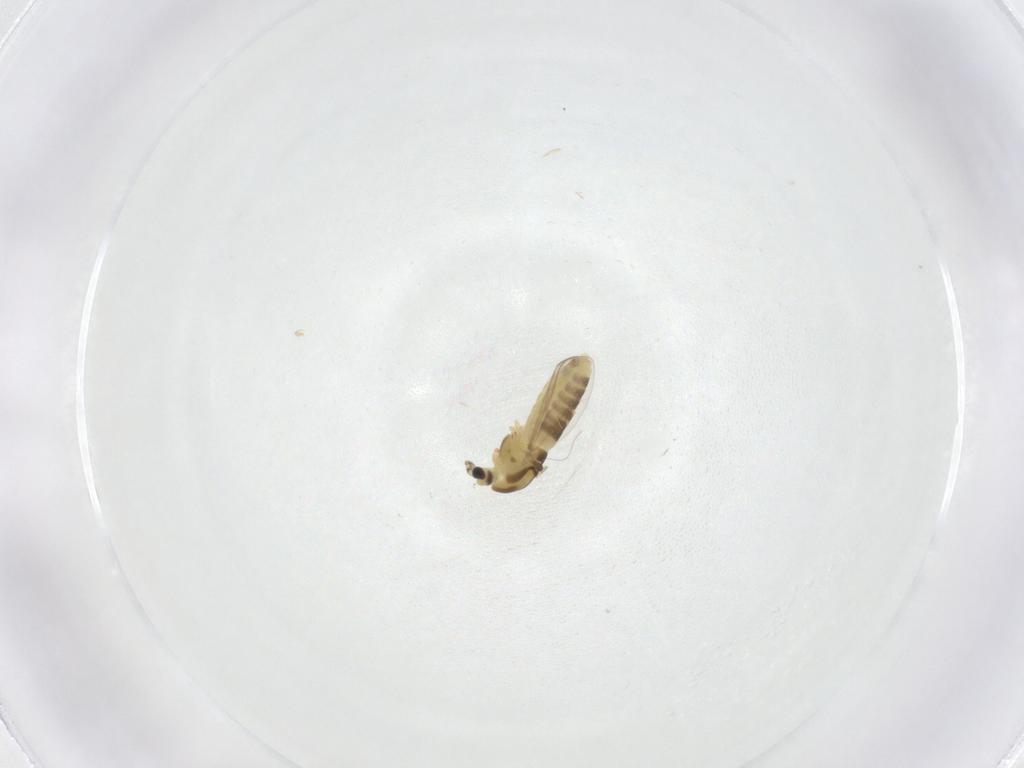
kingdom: Animalia
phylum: Arthropoda
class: Insecta
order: Diptera
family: Chironomidae
